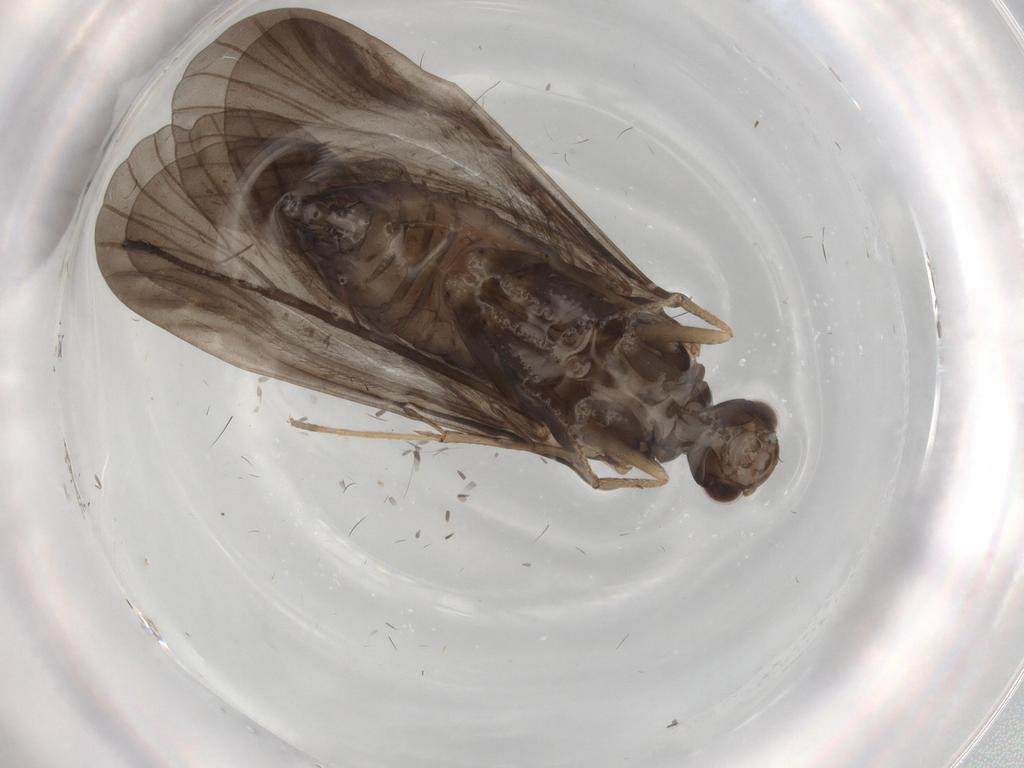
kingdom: Animalia
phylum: Arthropoda
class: Insecta
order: Trichoptera
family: Hydropsychidae
